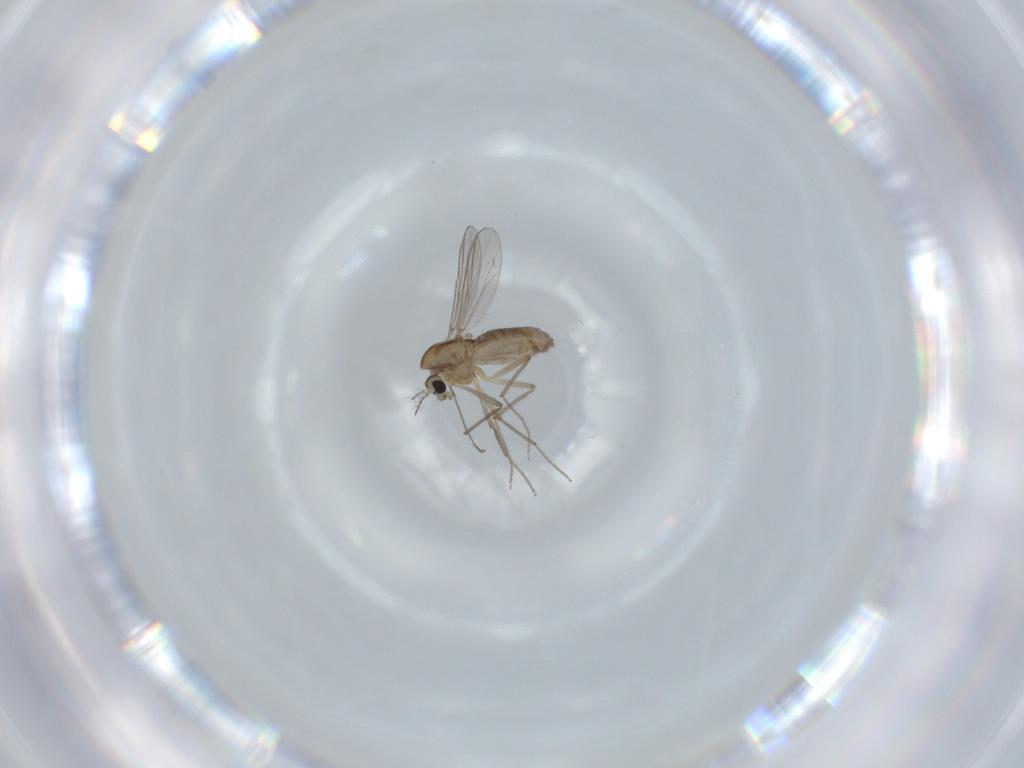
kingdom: Animalia
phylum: Arthropoda
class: Insecta
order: Diptera
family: Chironomidae
